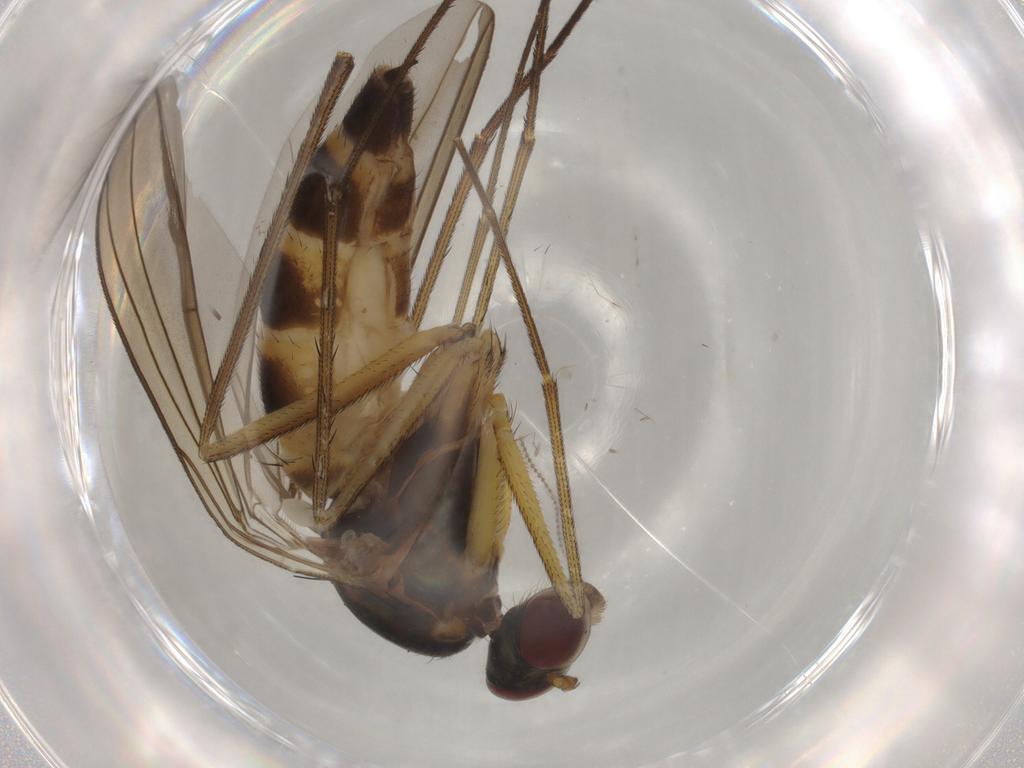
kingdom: Animalia
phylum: Arthropoda
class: Insecta
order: Diptera
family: Dolichopodidae
